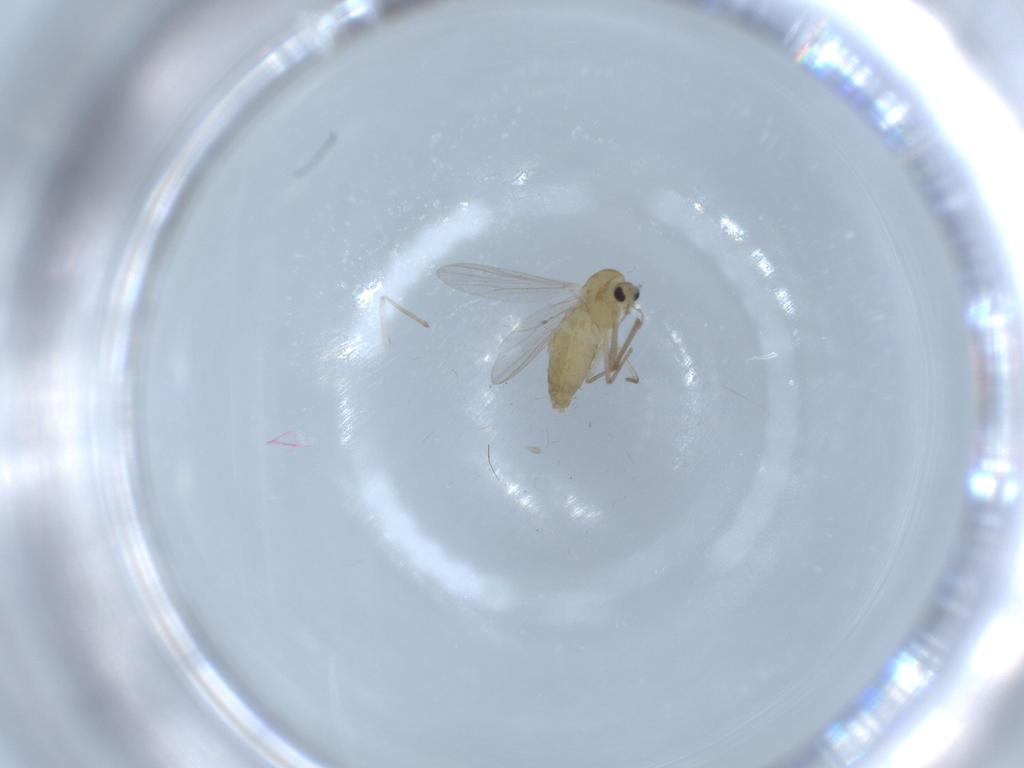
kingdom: Animalia
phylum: Arthropoda
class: Insecta
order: Diptera
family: Chironomidae
